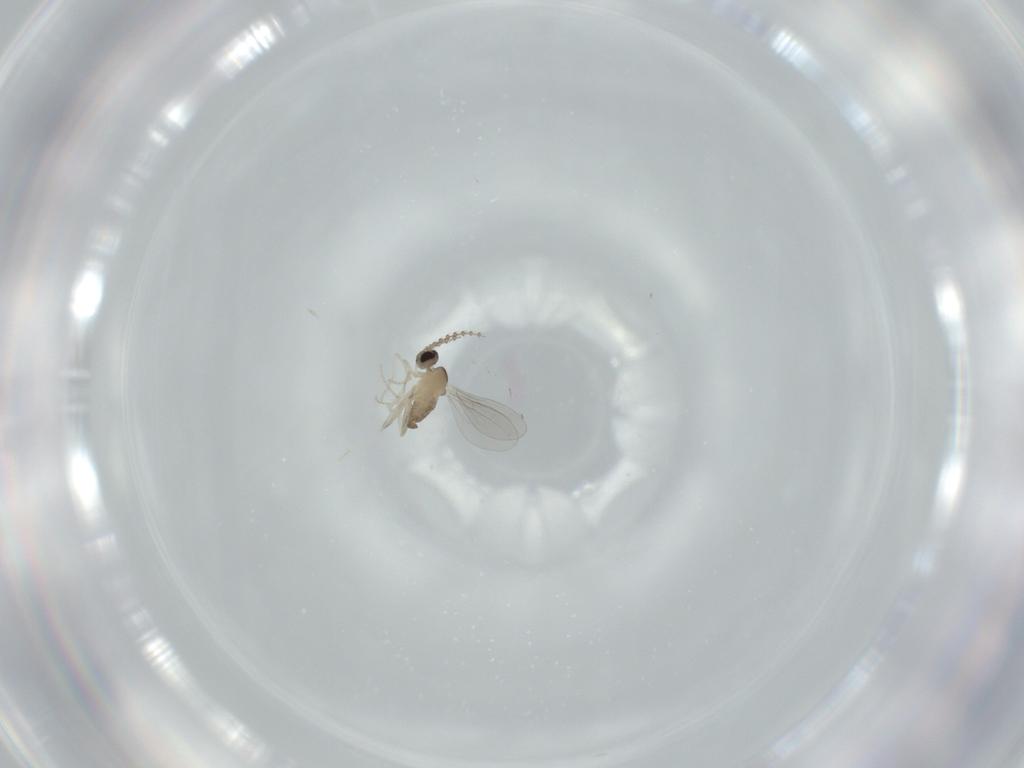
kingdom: Animalia
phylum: Arthropoda
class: Insecta
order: Diptera
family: Cecidomyiidae
